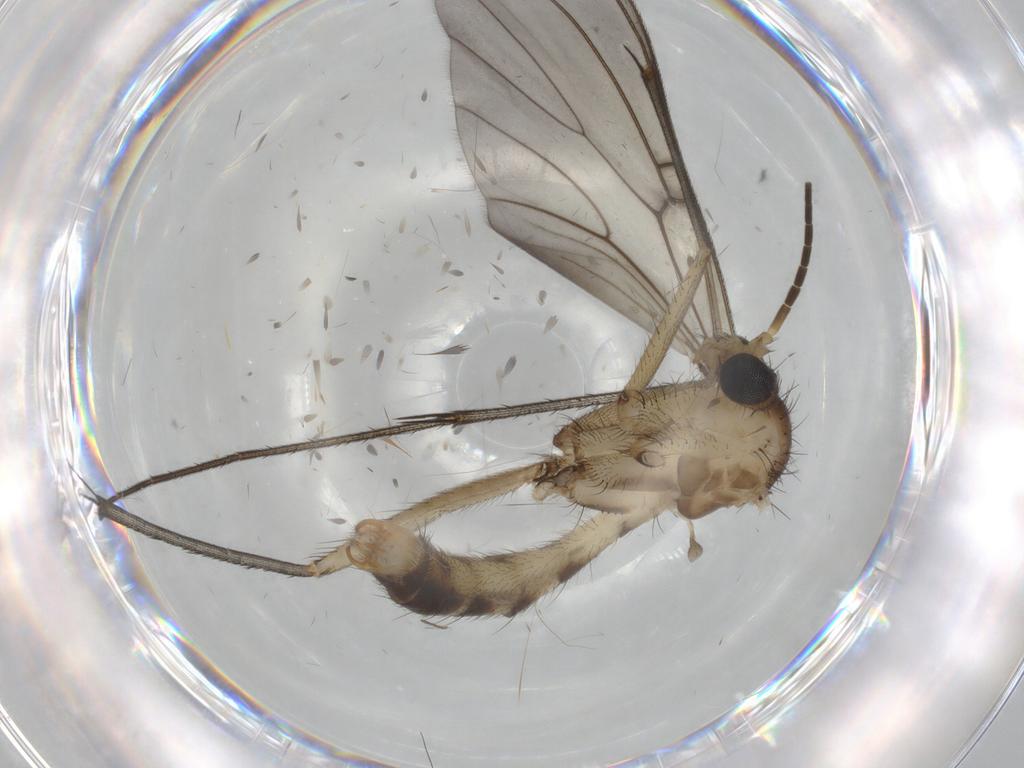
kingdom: Animalia
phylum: Arthropoda
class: Insecta
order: Diptera
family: Mycetophilidae
